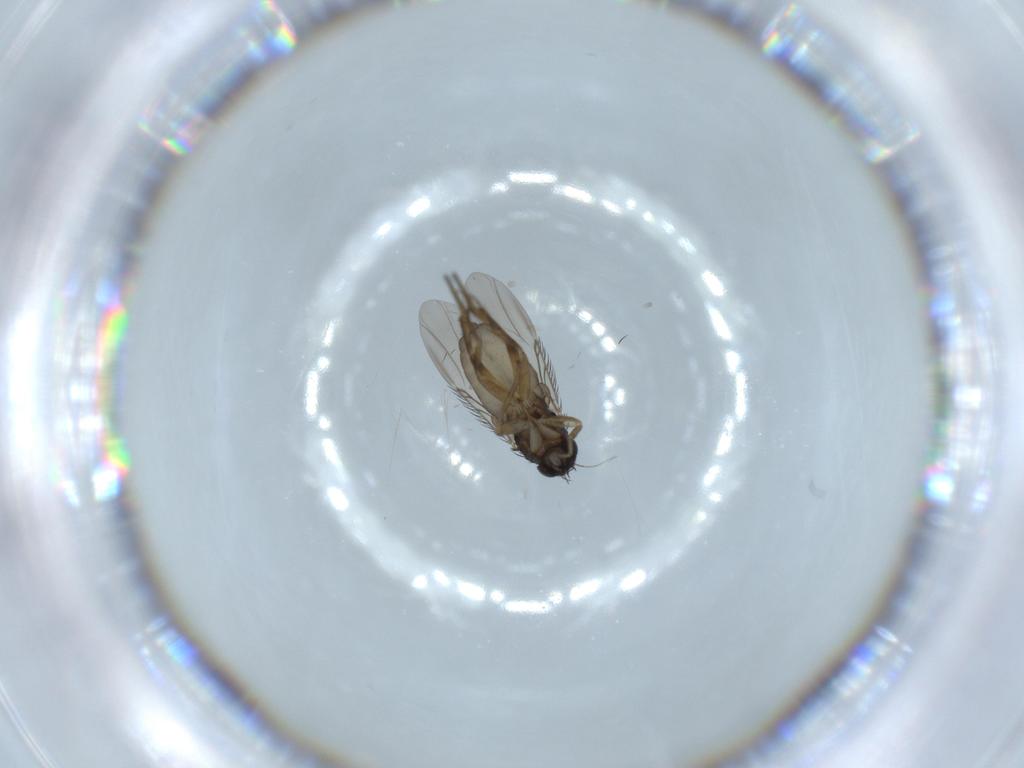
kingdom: Animalia
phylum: Arthropoda
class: Insecta
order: Diptera
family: Phoridae
